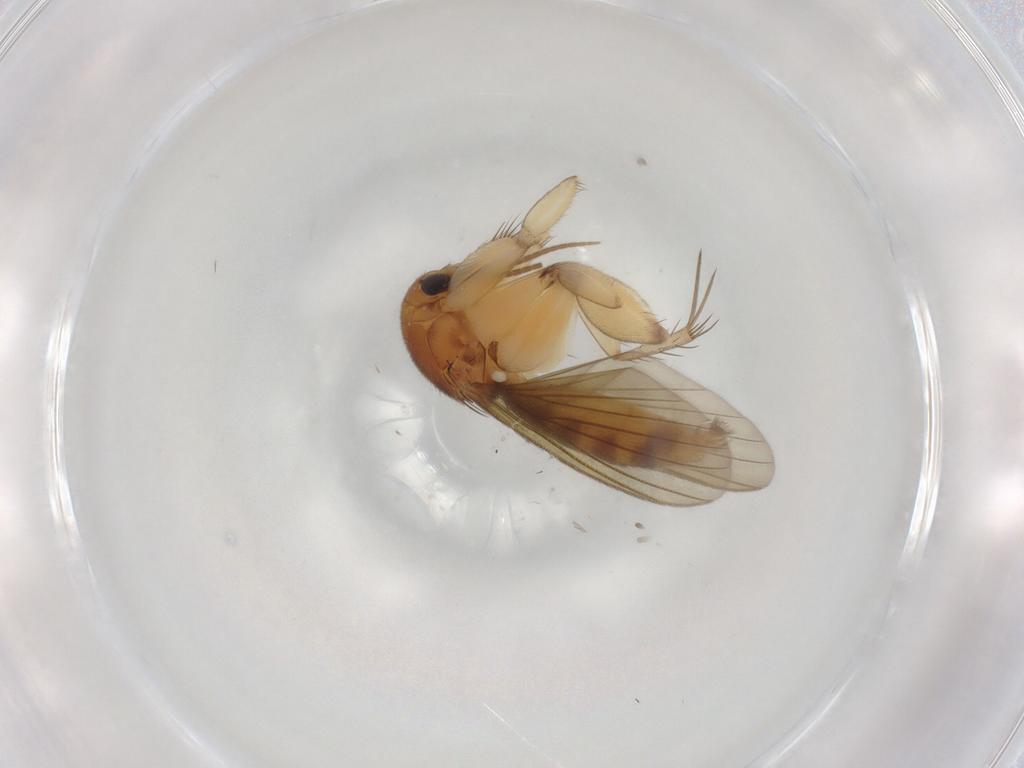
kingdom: Animalia
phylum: Arthropoda
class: Insecta
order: Diptera
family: Mycetophilidae
